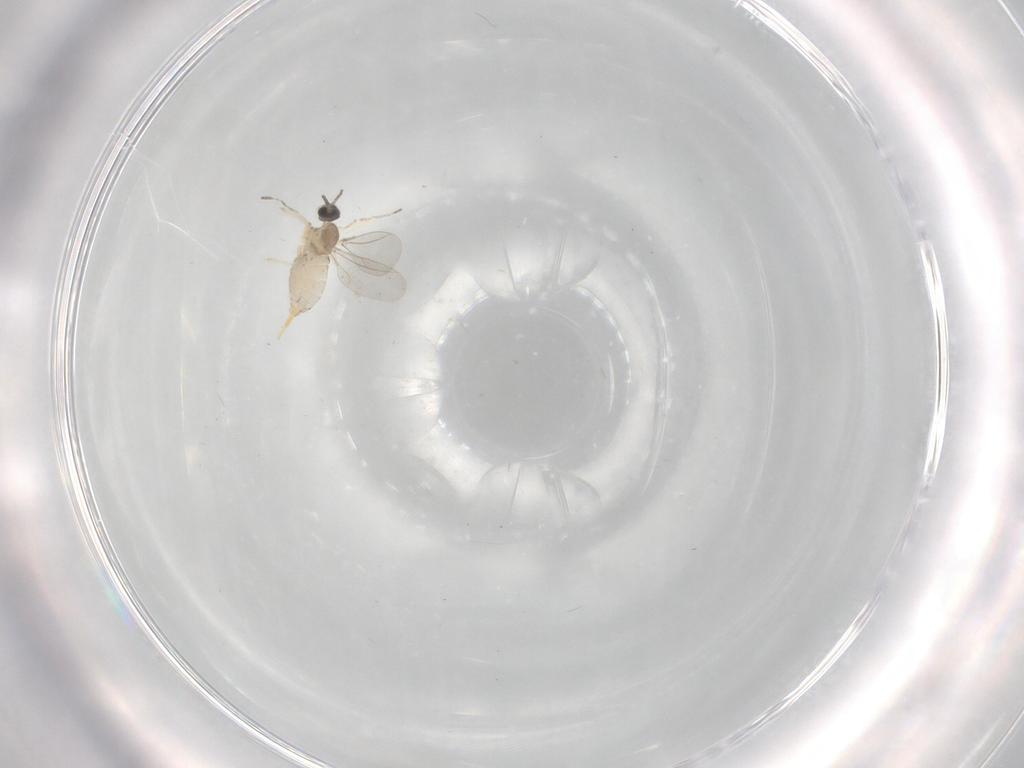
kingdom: Animalia
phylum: Arthropoda
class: Insecta
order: Diptera
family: Cecidomyiidae
